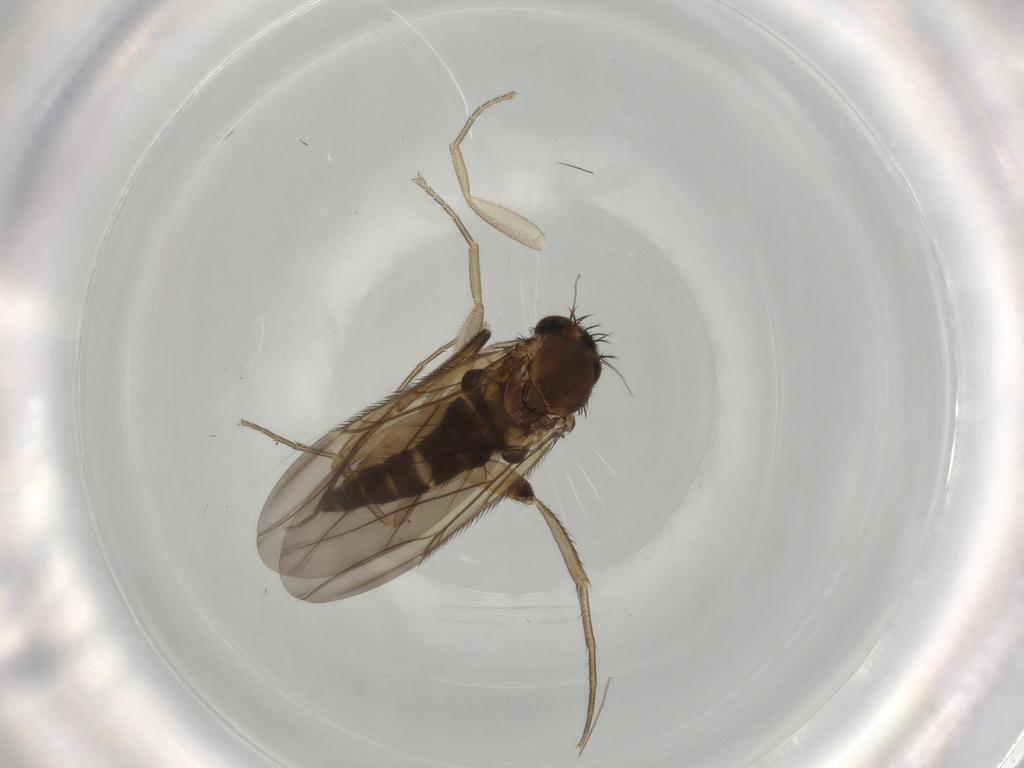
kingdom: Animalia
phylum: Arthropoda
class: Insecta
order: Diptera
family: Phoridae
